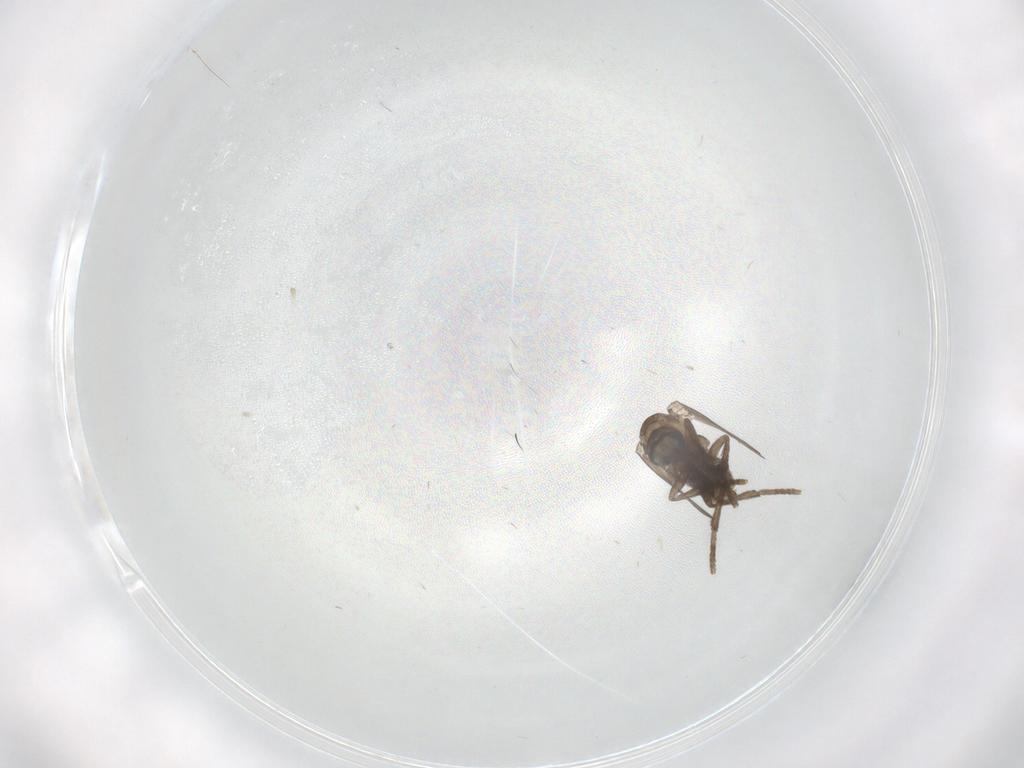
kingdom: Animalia
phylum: Arthropoda
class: Insecta
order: Diptera
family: Psychodidae
